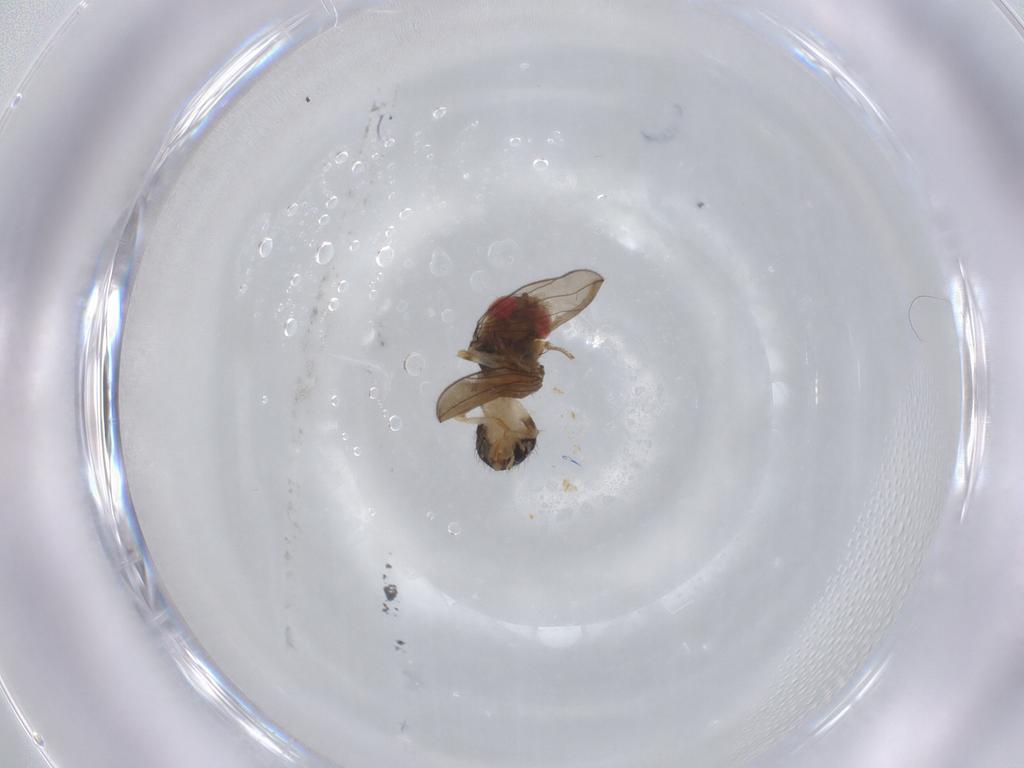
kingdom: Animalia
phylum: Arthropoda
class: Insecta
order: Diptera
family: Drosophilidae
